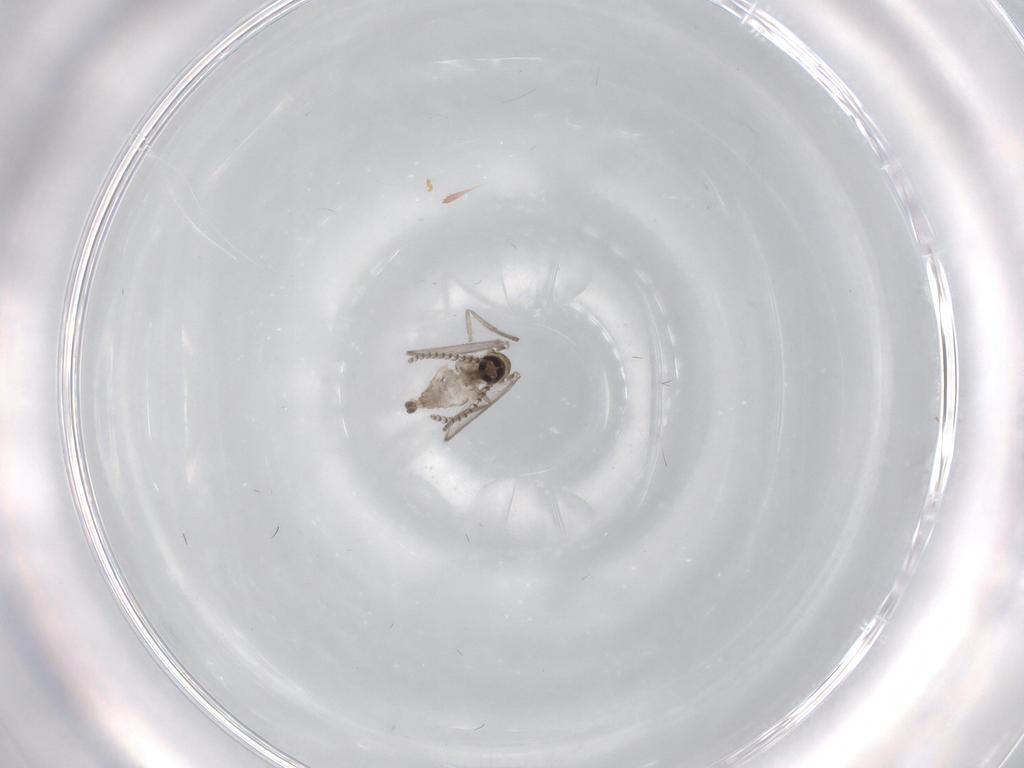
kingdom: Animalia
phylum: Arthropoda
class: Insecta
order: Diptera
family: Psychodidae
